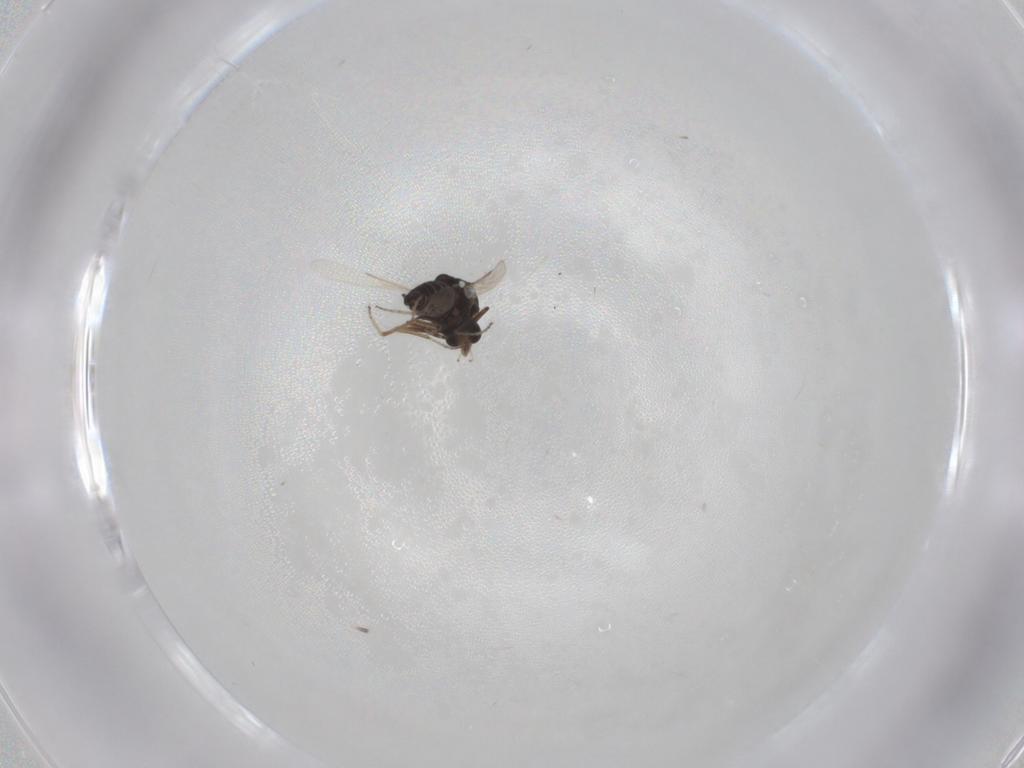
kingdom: Animalia
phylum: Arthropoda
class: Insecta
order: Diptera
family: Ceratopogonidae
